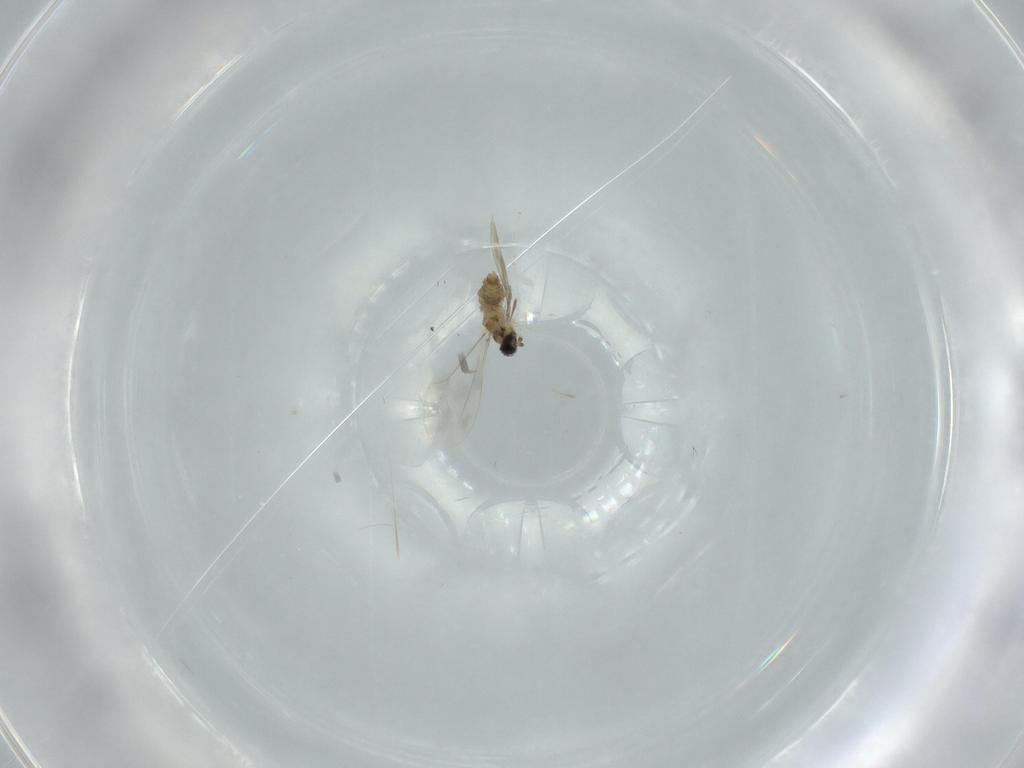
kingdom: Animalia
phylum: Arthropoda
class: Insecta
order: Diptera
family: Cecidomyiidae
